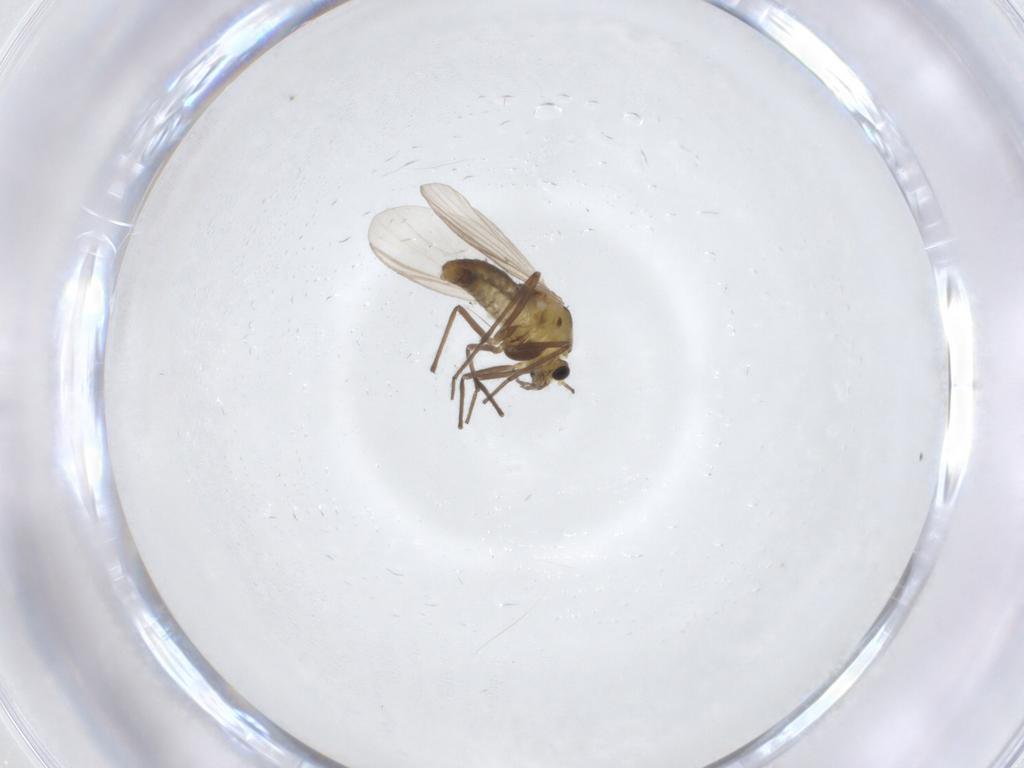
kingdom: Animalia
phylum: Arthropoda
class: Insecta
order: Diptera
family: Chironomidae
